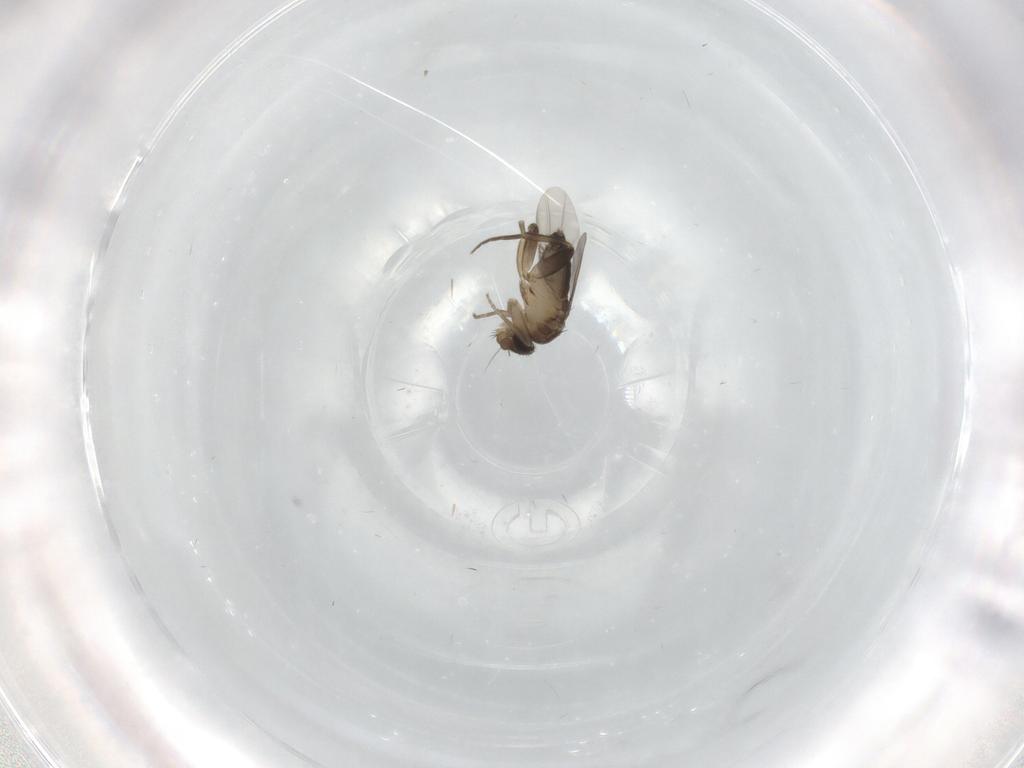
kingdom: Animalia
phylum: Arthropoda
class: Insecta
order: Diptera
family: Phoridae
